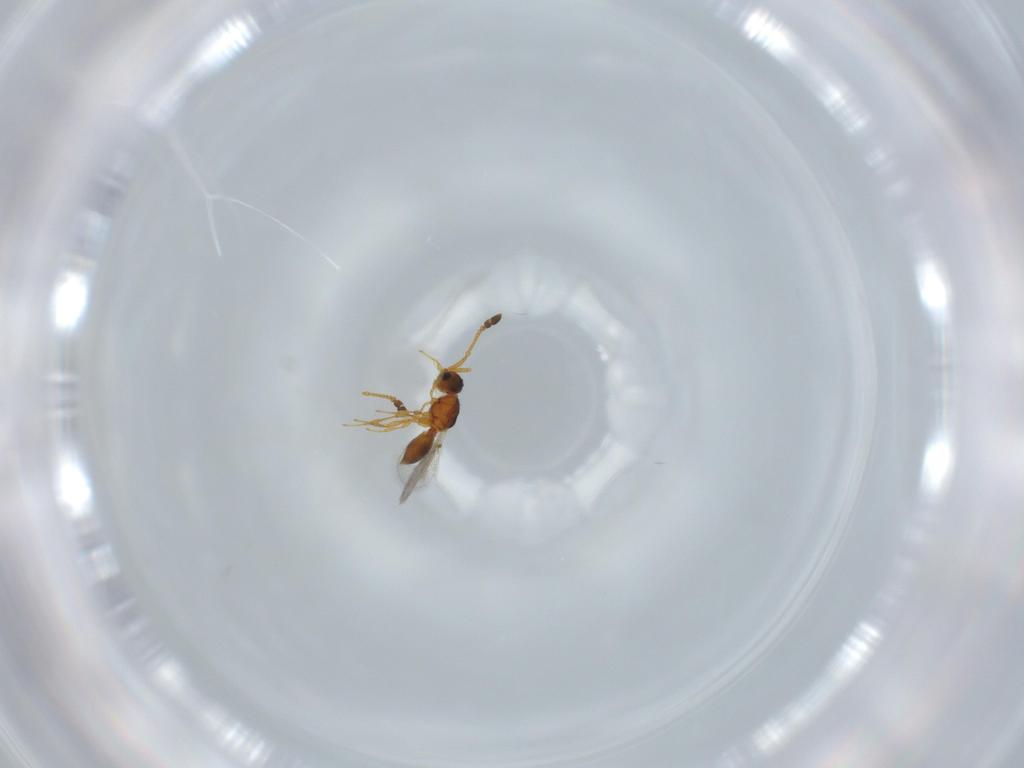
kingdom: Animalia
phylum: Arthropoda
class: Insecta
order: Hymenoptera
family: Diapriidae
